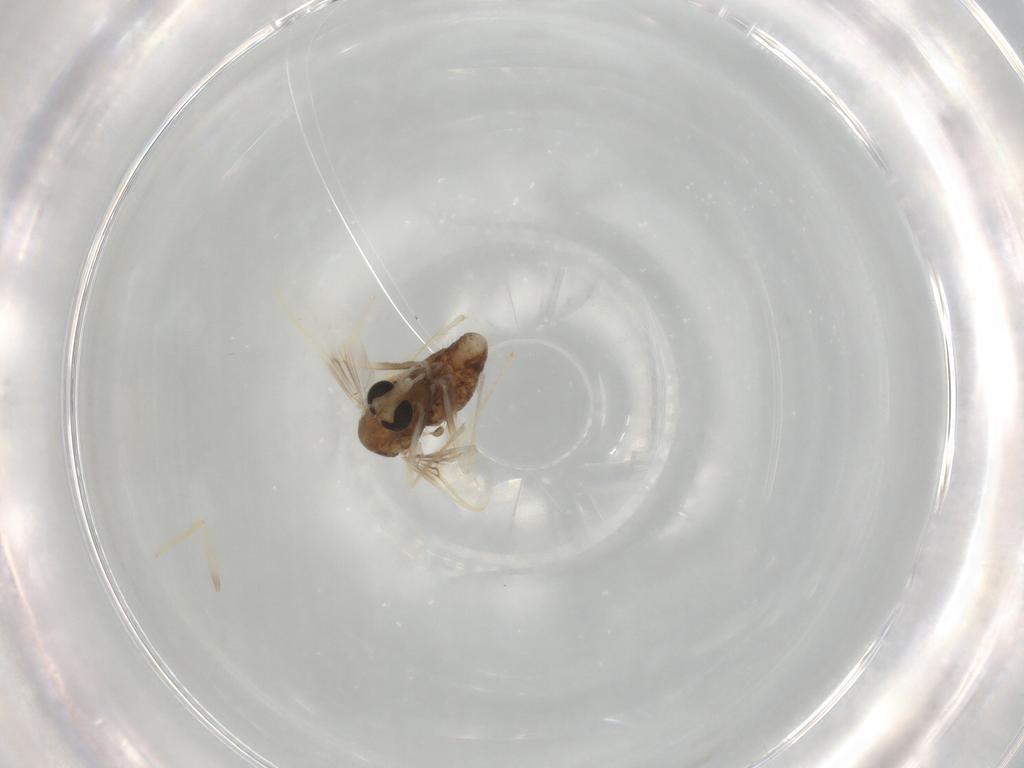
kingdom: Animalia
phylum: Arthropoda
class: Insecta
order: Diptera
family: Chironomidae
